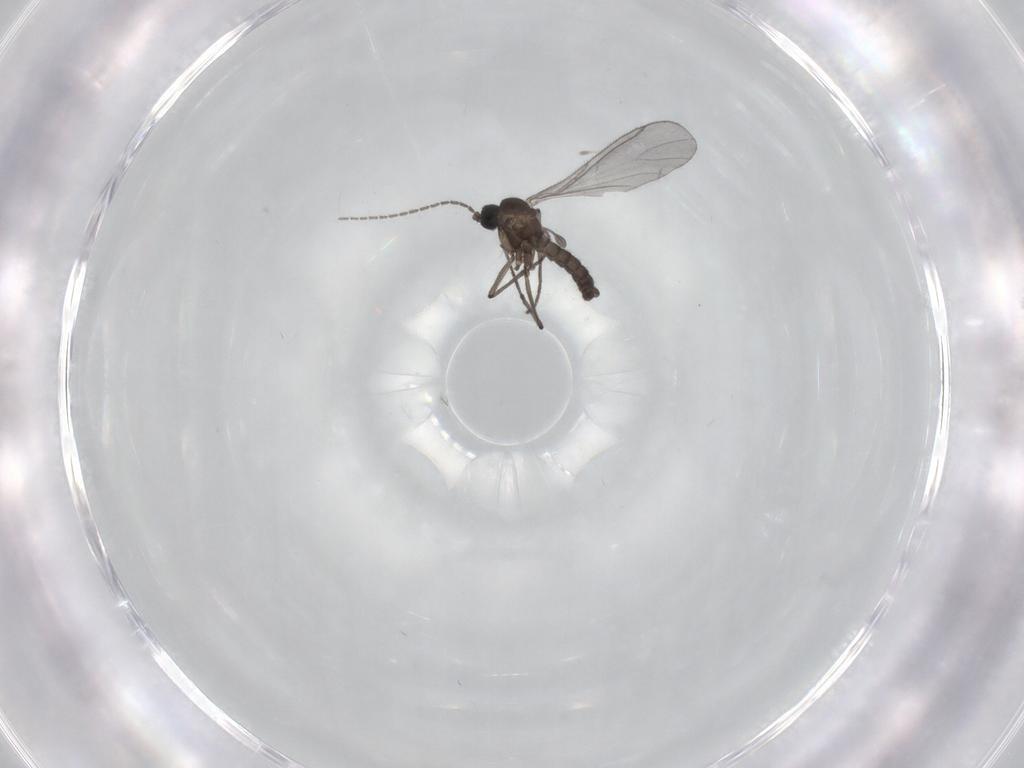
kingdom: Animalia
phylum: Arthropoda
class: Insecta
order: Diptera
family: Sciaridae
